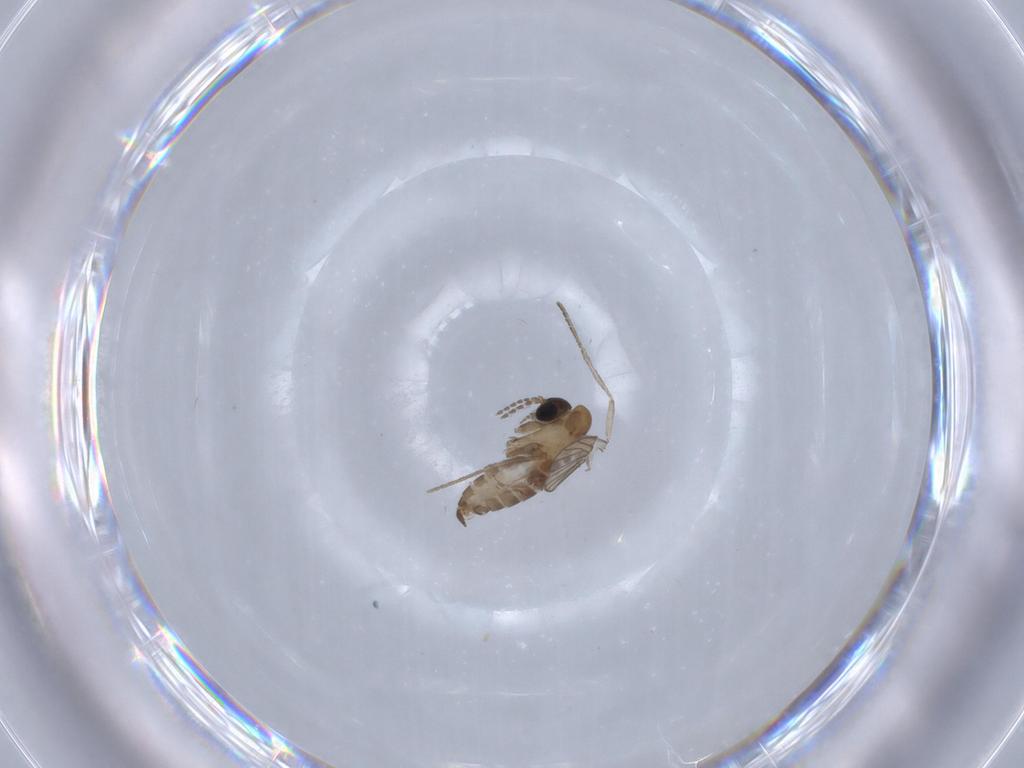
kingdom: Animalia
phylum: Arthropoda
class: Insecta
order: Diptera
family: Psychodidae
